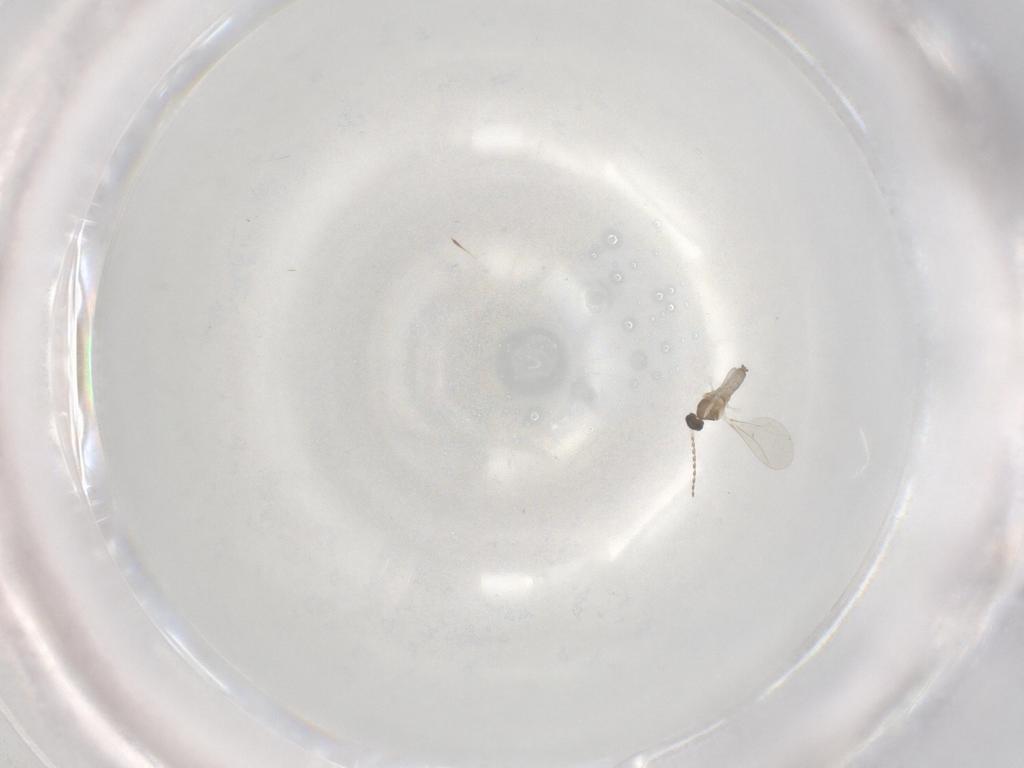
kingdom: Animalia
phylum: Arthropoda
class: Insecta
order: Diptera
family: Cecidomyiidae
